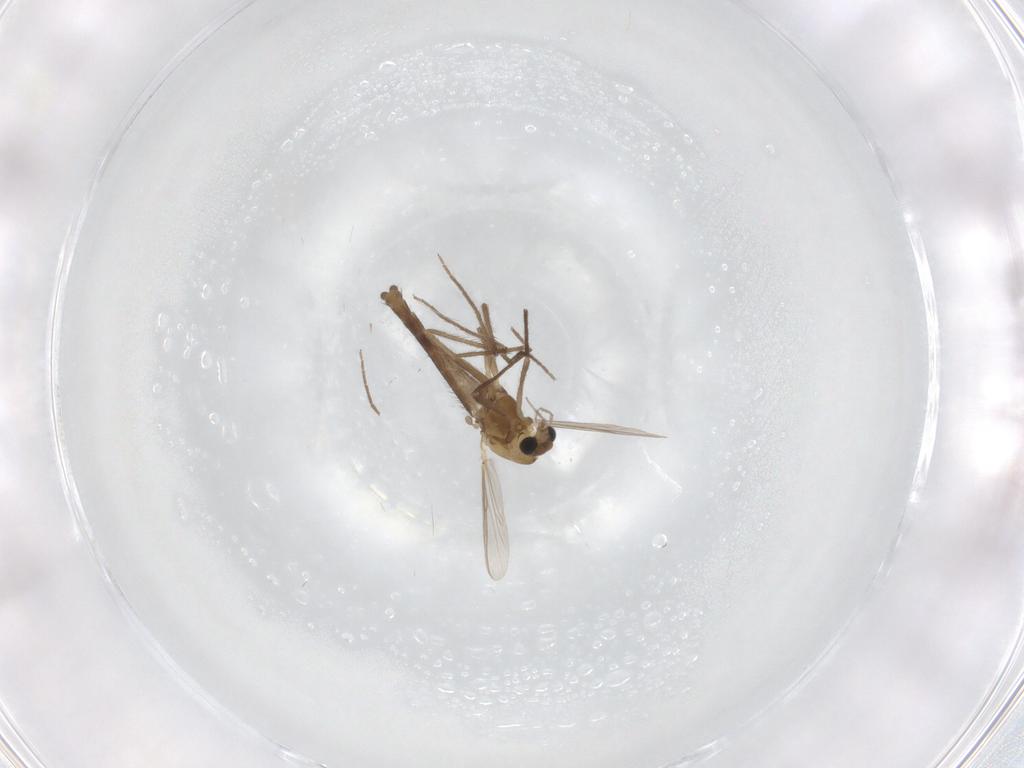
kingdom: Animalia
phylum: Arthropoda
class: Insecta
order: Diptera
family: Chironomidae
